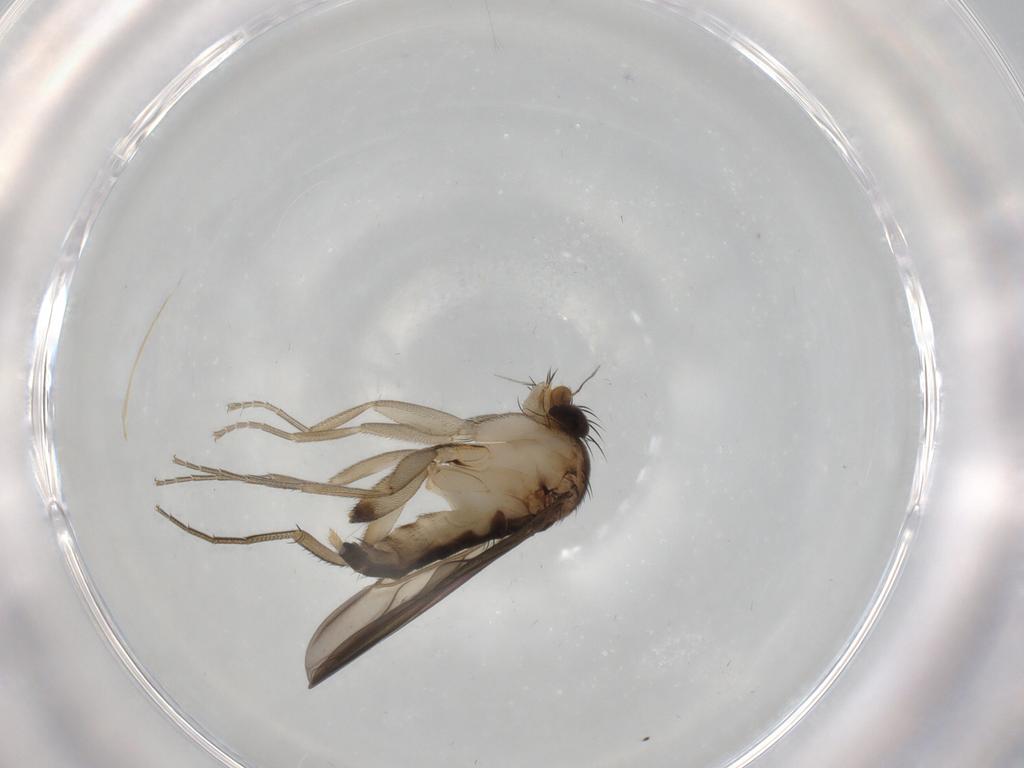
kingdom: Animalia
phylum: Arthropoda
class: Insecta
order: Diptera
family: Phoridae
